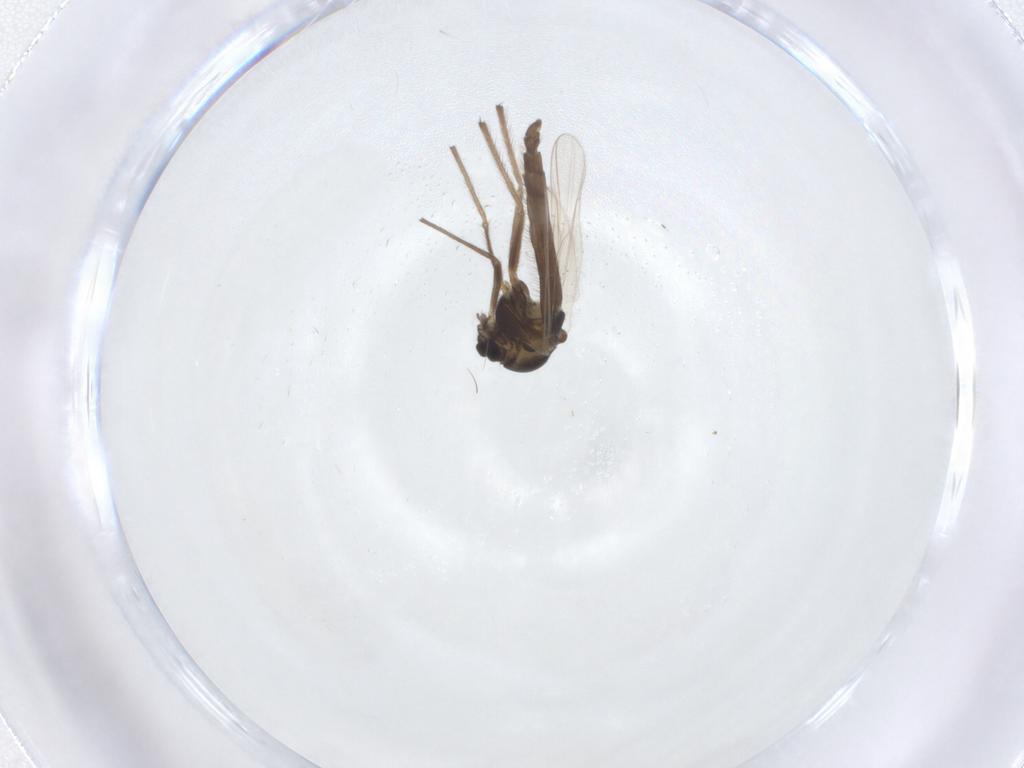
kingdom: Animalia
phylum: Arthropoda
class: Insecta
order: Diptera
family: Chironomidae
